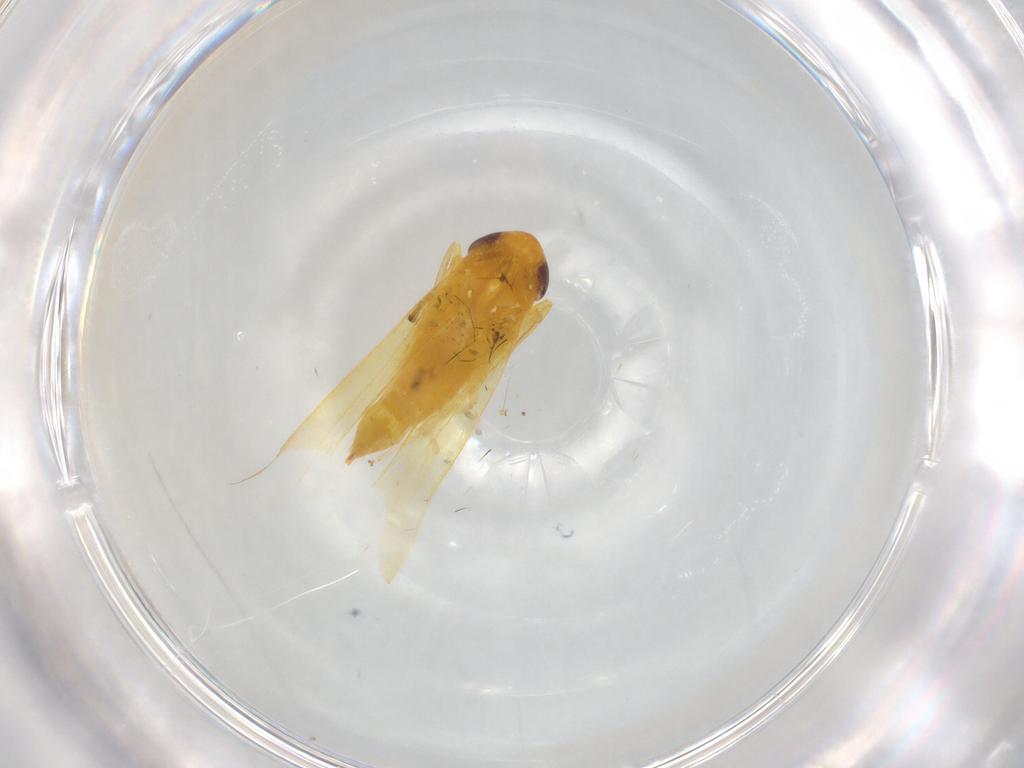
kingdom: Animalia
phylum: Arthropoda
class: Insecta
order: Hemiptera
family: Cicadellidae
